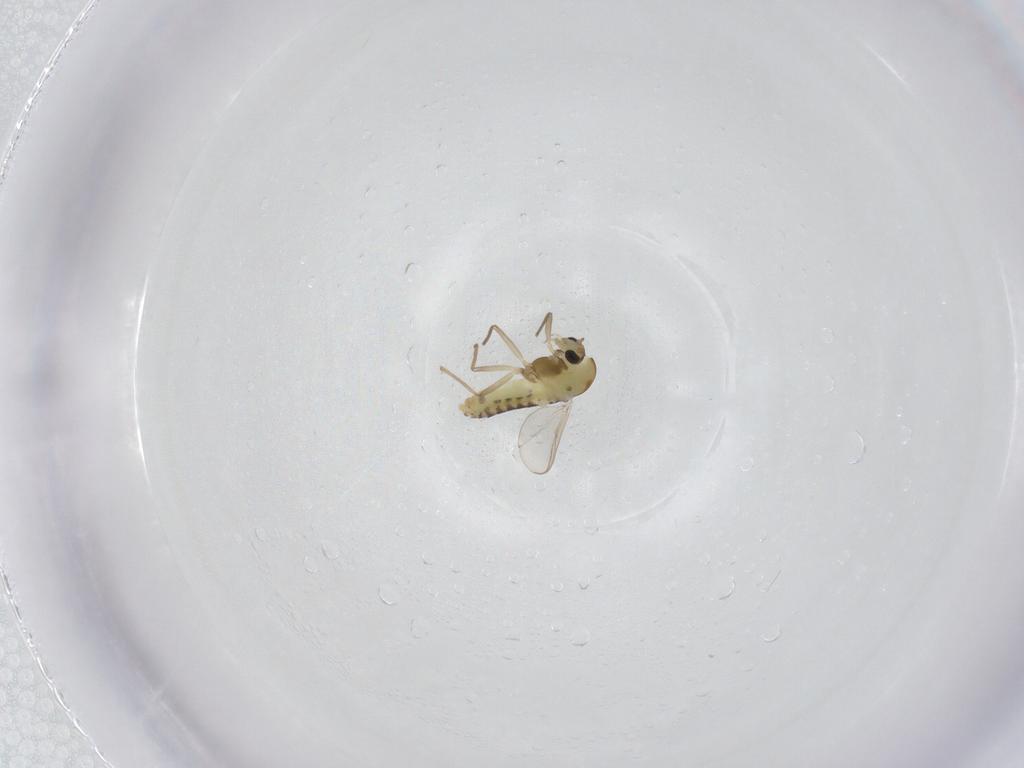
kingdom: Animalia
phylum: Arthropoda
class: Insecta
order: Diptera
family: Chironomidae
